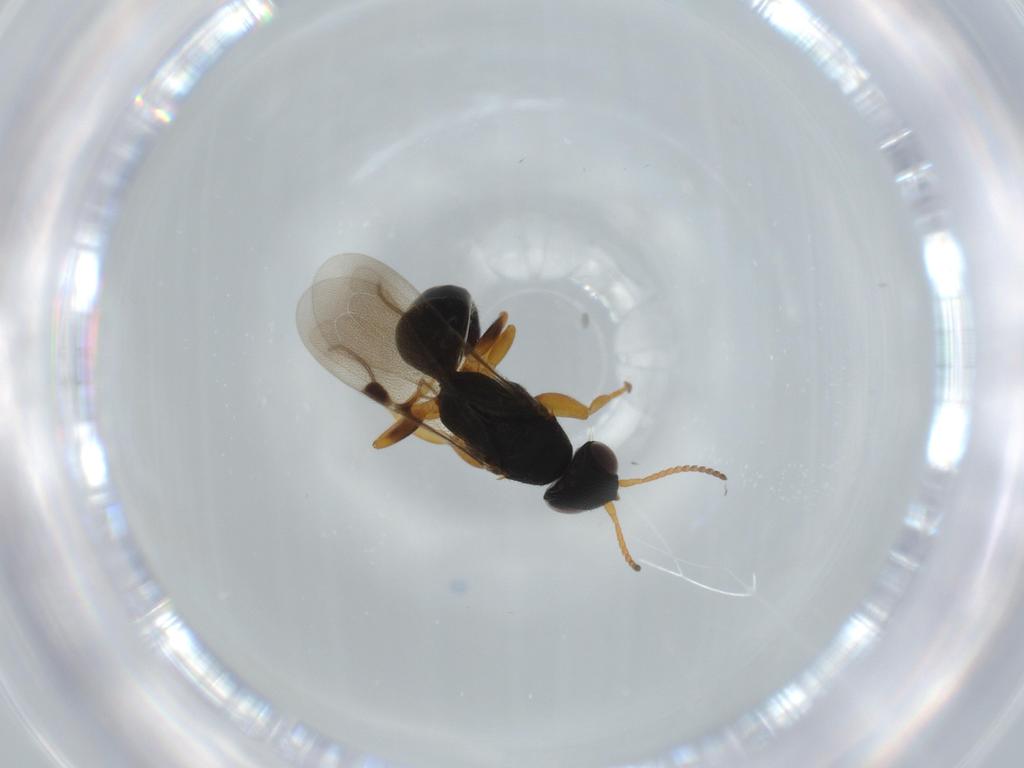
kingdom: Animalia
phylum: Arthropoda
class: Insecta
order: Hymenoptera
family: Bethylidae
